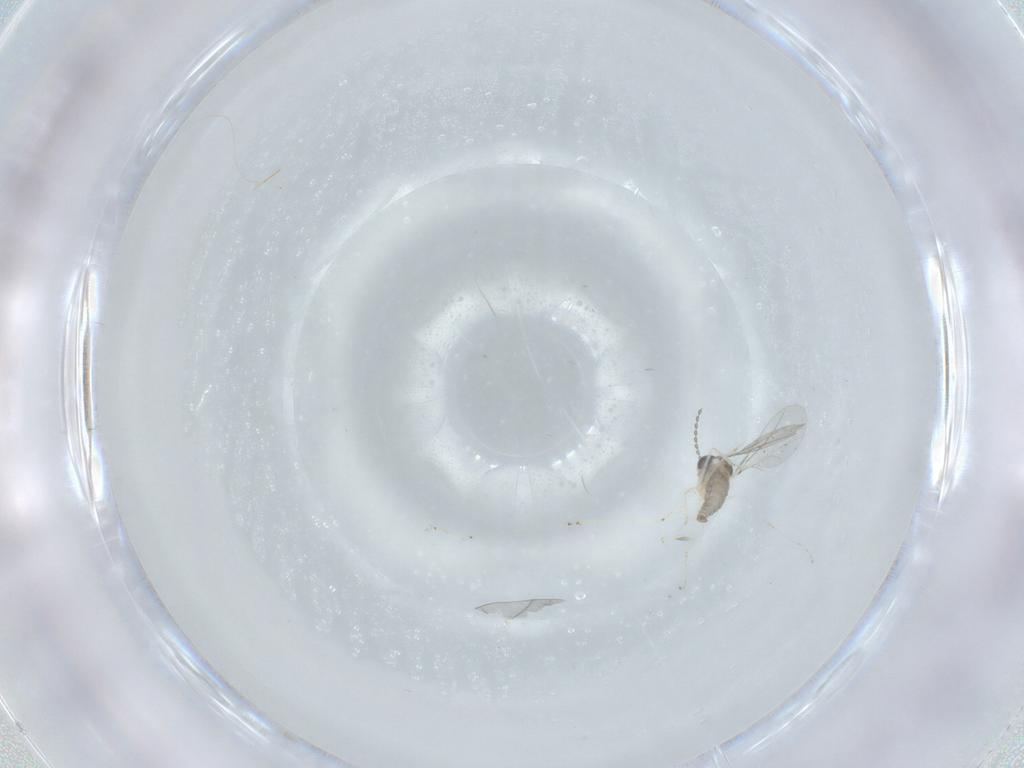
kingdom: Animalia
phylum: Arthropoda
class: Insecta
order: Diptera
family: Cecidomyiidae
